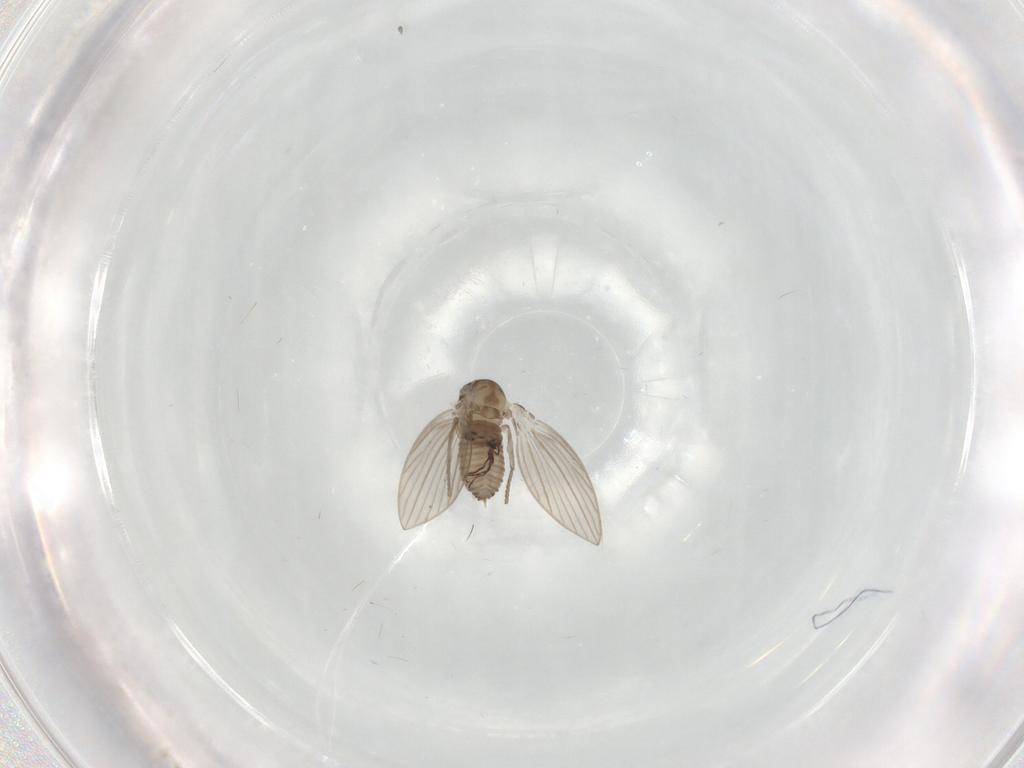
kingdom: Animalia
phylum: Arthropoda
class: Insecta
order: Diptera
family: Psychodidae
